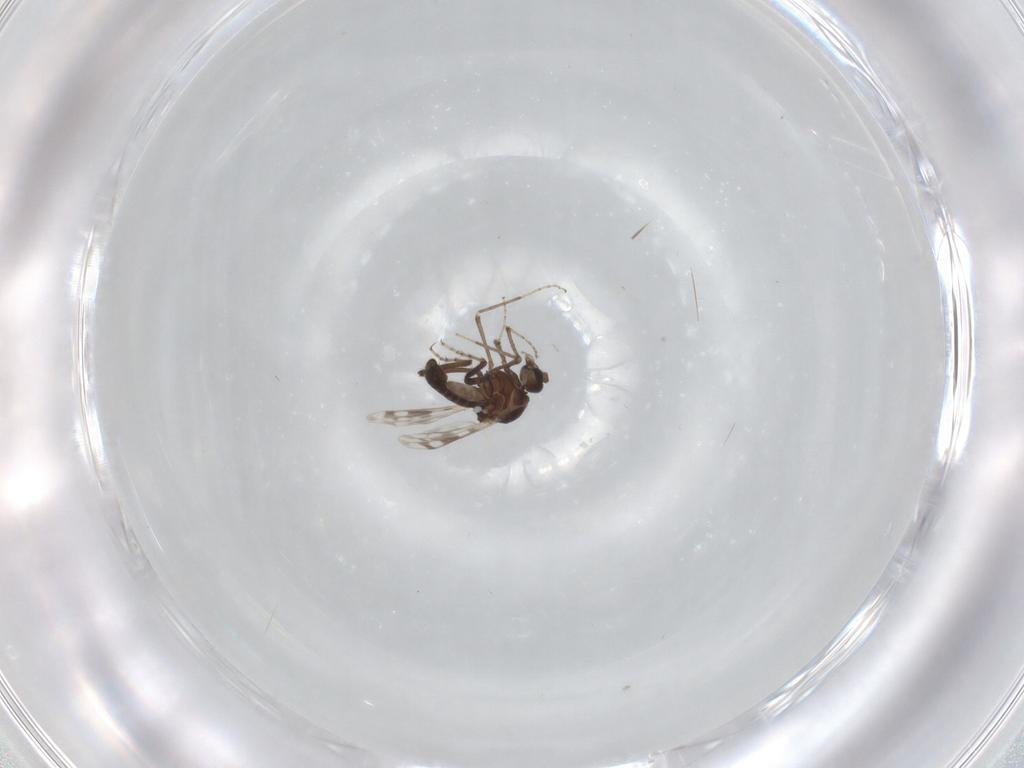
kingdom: Animalia
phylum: Arthropoda
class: Insecta
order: Diptera
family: Ceratopogonidae
